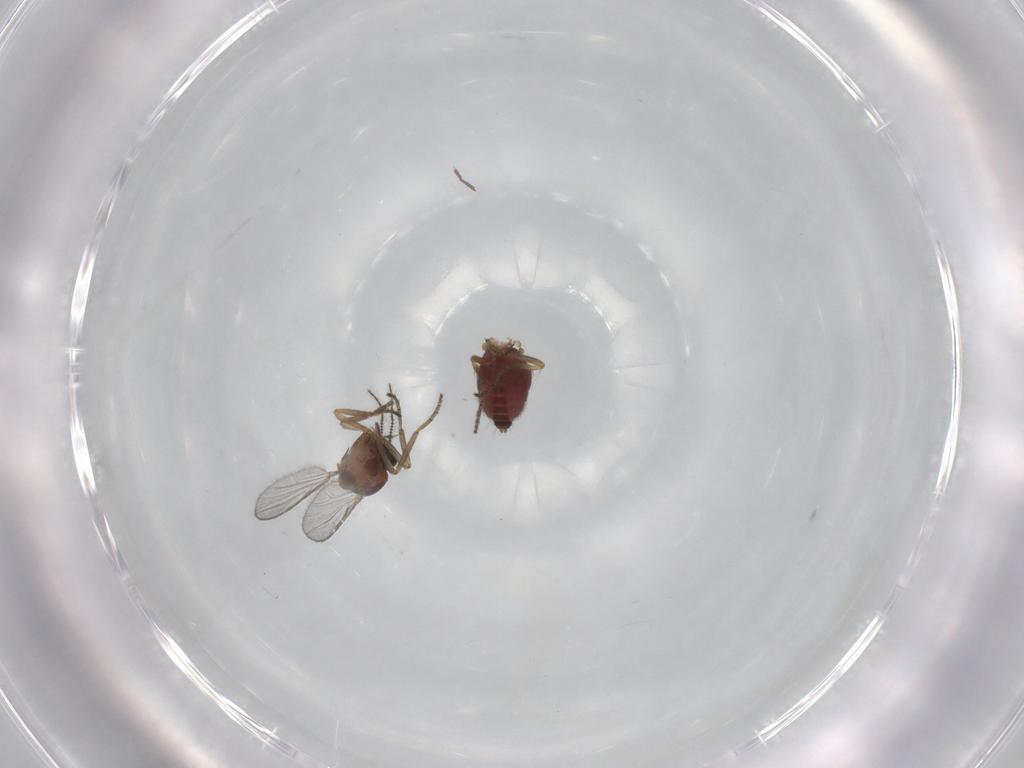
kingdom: Animalia
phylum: Arthropoda
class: Insecta
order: Diptera
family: Ceratopogonidae
